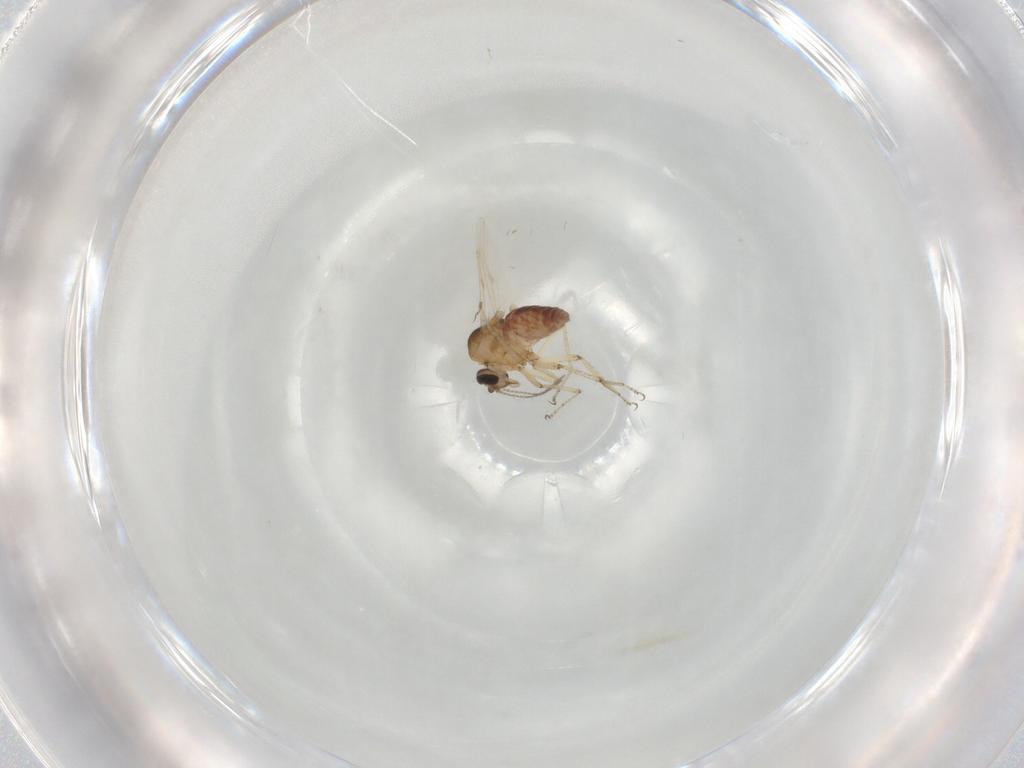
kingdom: Animalia
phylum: Arthropoda
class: Insecta
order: Diptera
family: Ceratopogonidae
